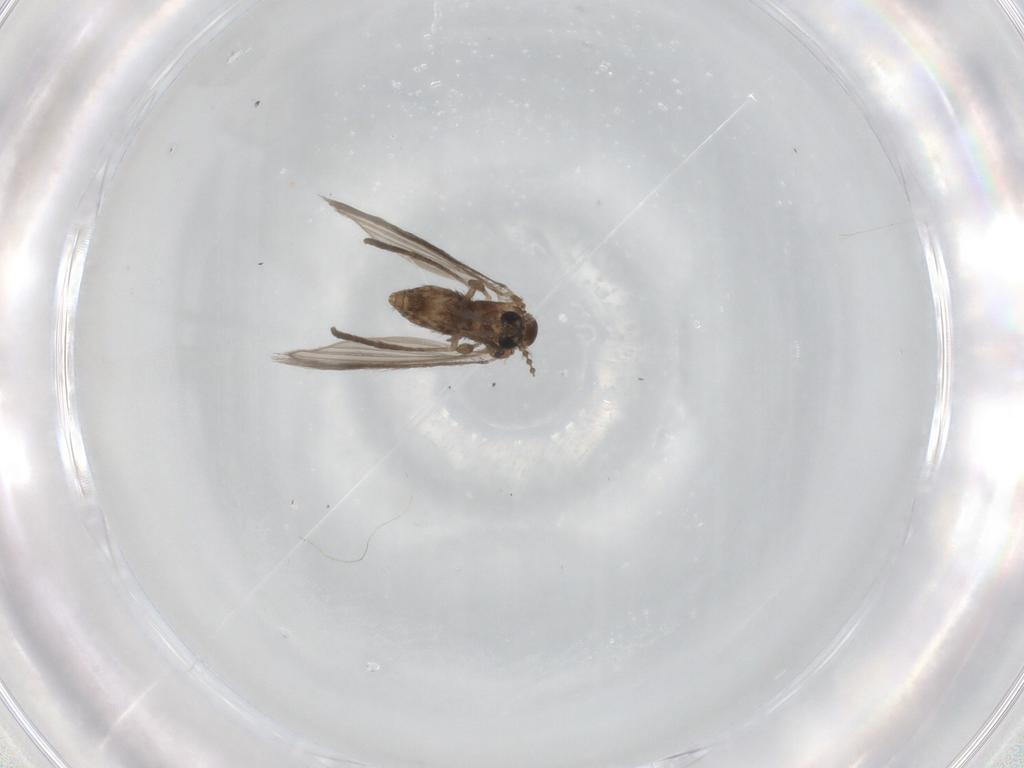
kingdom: Animalia
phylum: Arthropoda
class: Insecta
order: Diptera
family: Psychodidae
